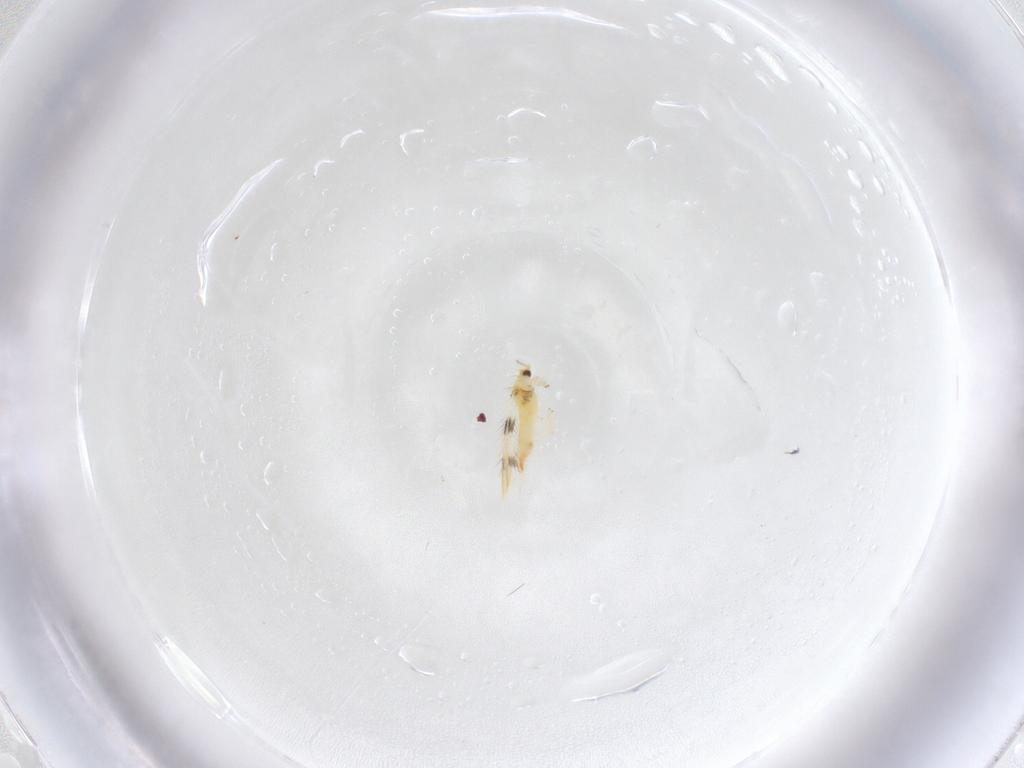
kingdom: Animalia
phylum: Arthropoda
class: Insecta
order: Thysanoptera
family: Thripidae
